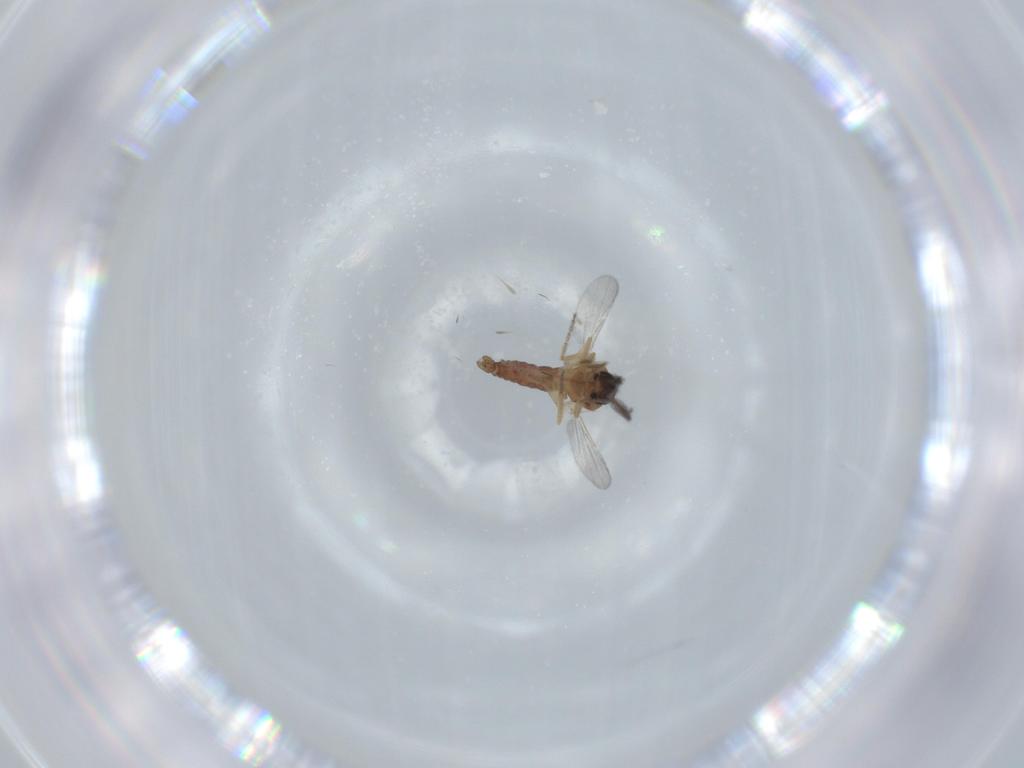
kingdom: Animalia
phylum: Arthropoda
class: Insecta
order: Diptera
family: Ceratopogonidae
